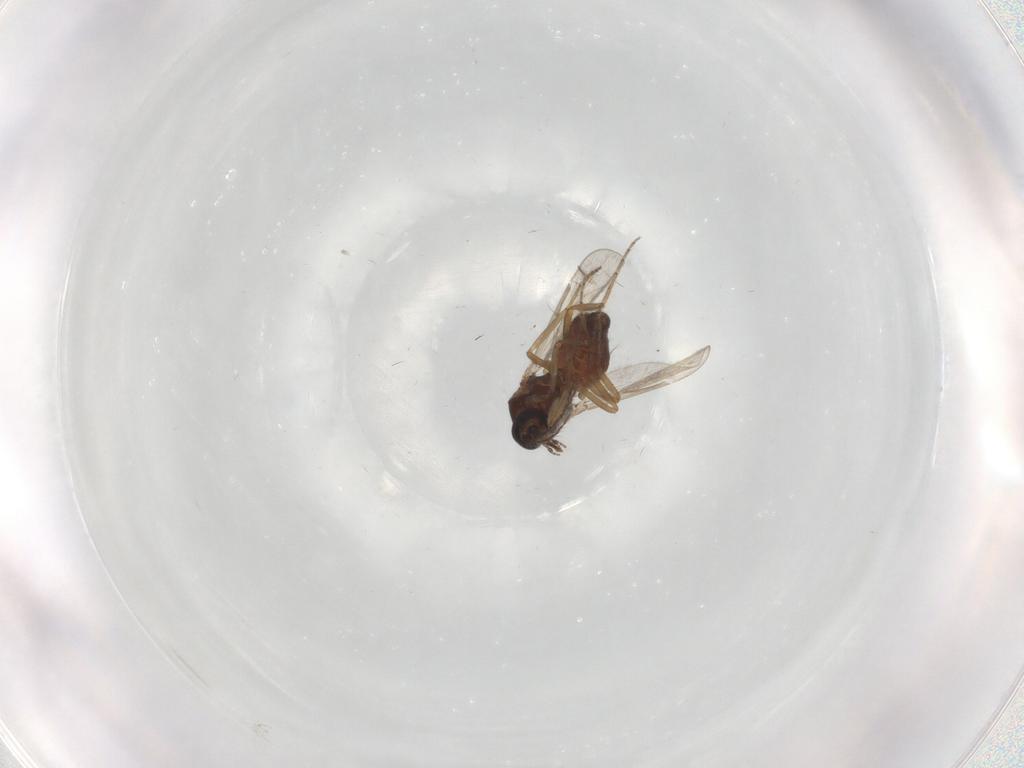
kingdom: Animalia
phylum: Arthropoda
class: Insecta
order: Diptera
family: Ceratopogonidae
